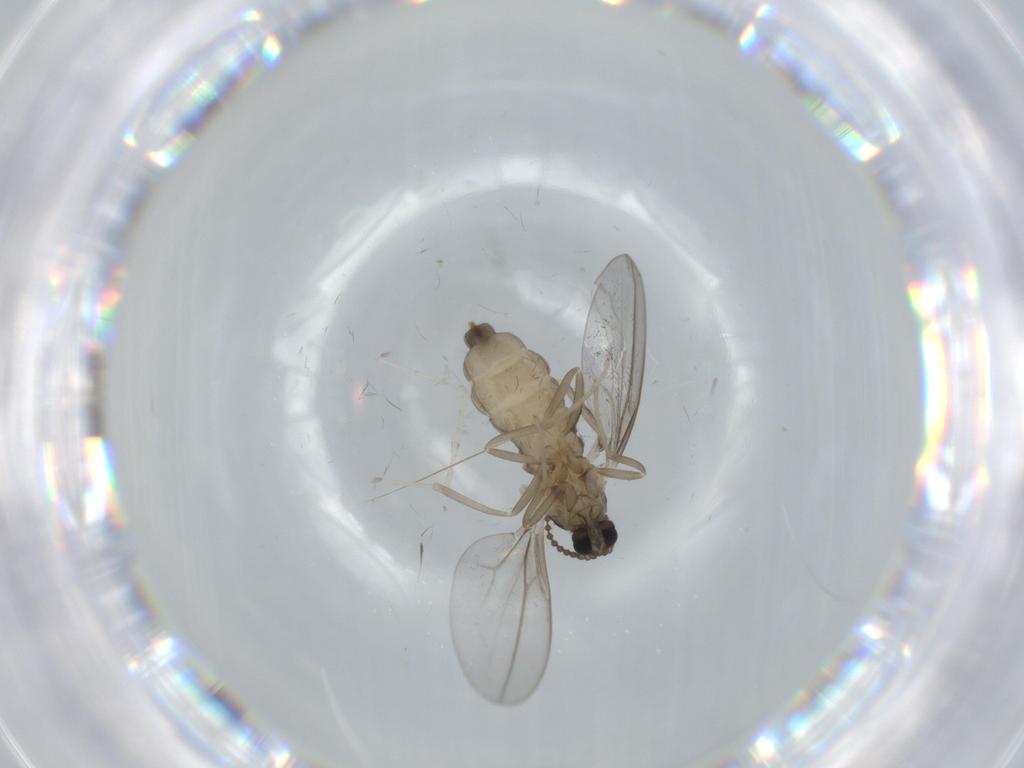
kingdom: Animalia
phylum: Arthropoda
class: Insecta
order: Diptera
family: Cecidomyiidae
